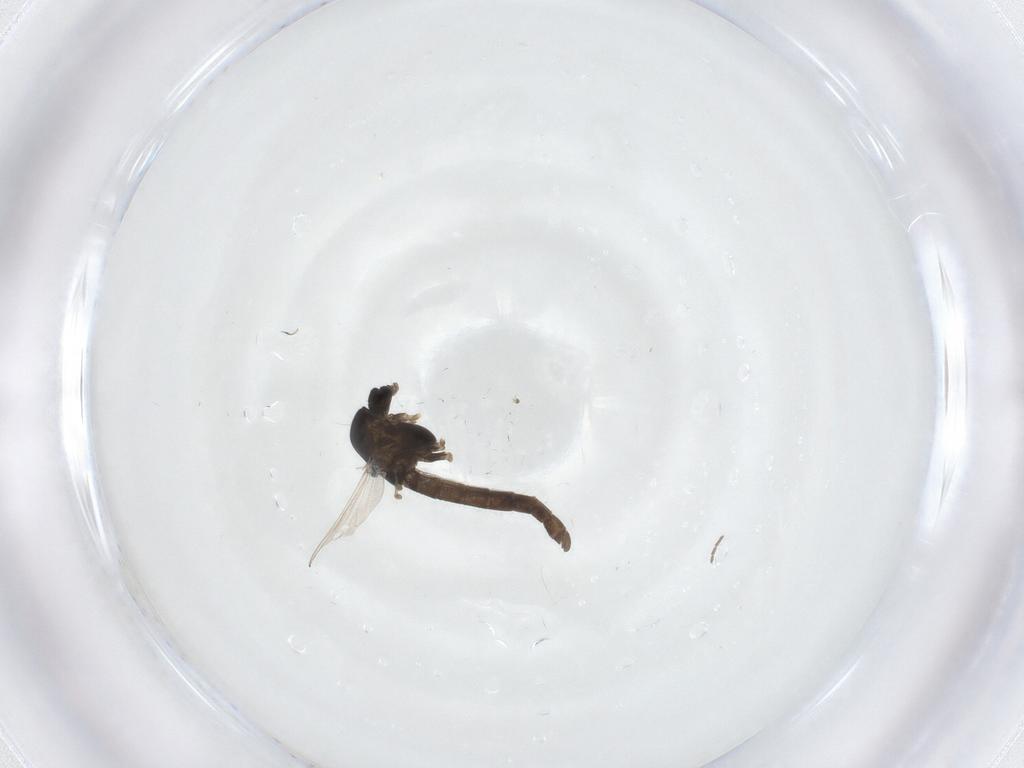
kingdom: Animalia
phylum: Arthropoda
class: Insecta
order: Diptera
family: Chironomidae
